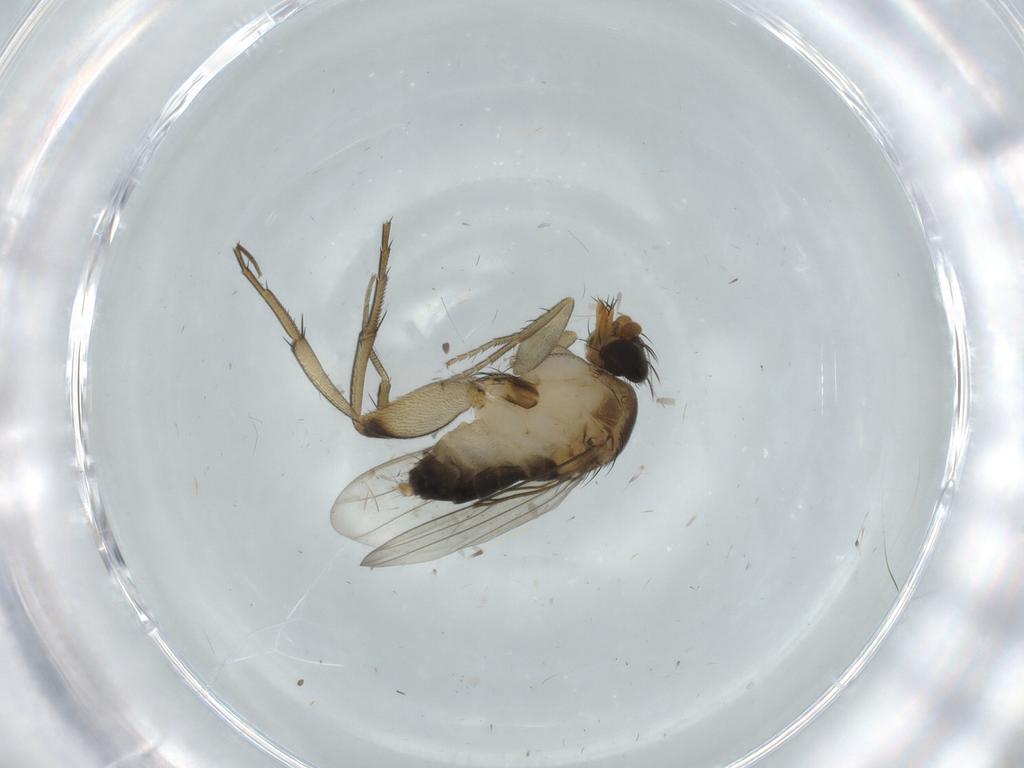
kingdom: Animalia
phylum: Arthropoda
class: Insecta
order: Diptera
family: Phoridae
